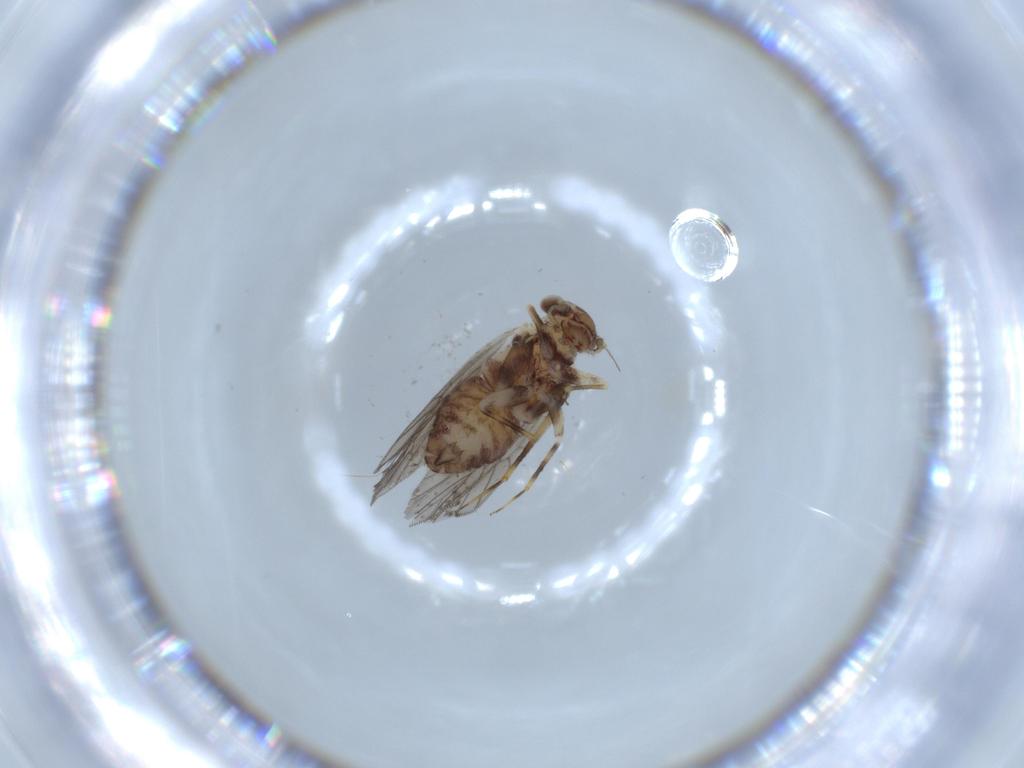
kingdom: Animalia
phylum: Arthropoda
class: Insecta
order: Psocodea
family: Lepidopsocidae
